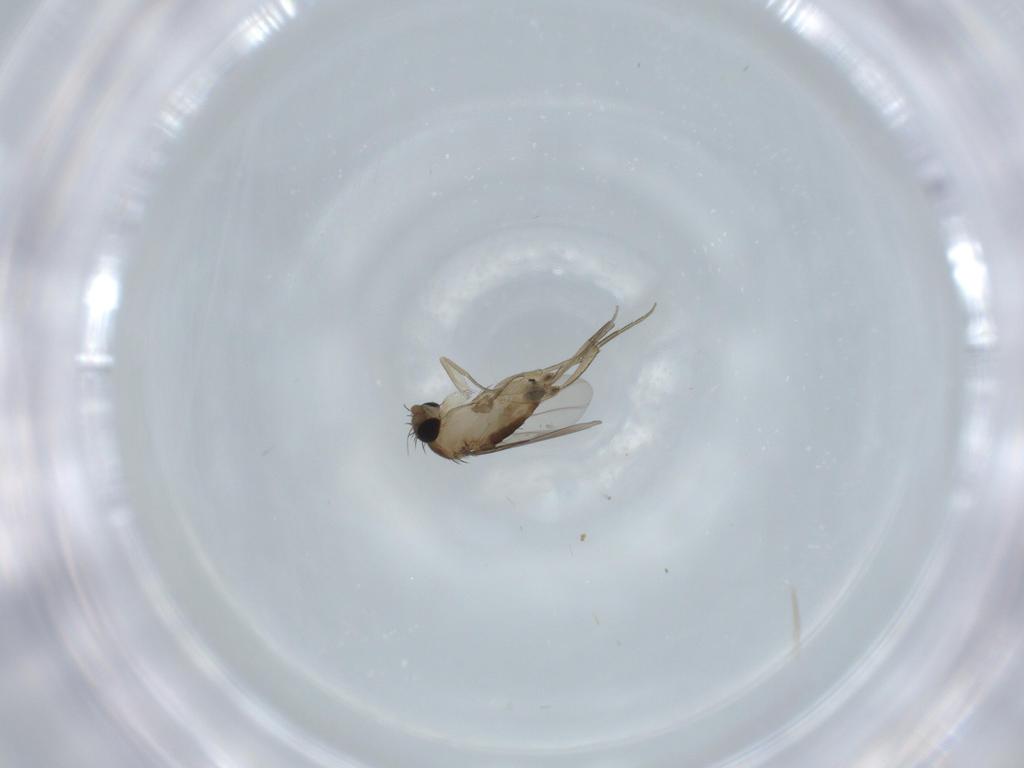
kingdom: Animalia
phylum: Arthropoda
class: Insecta
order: Diptera
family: Phoridae
